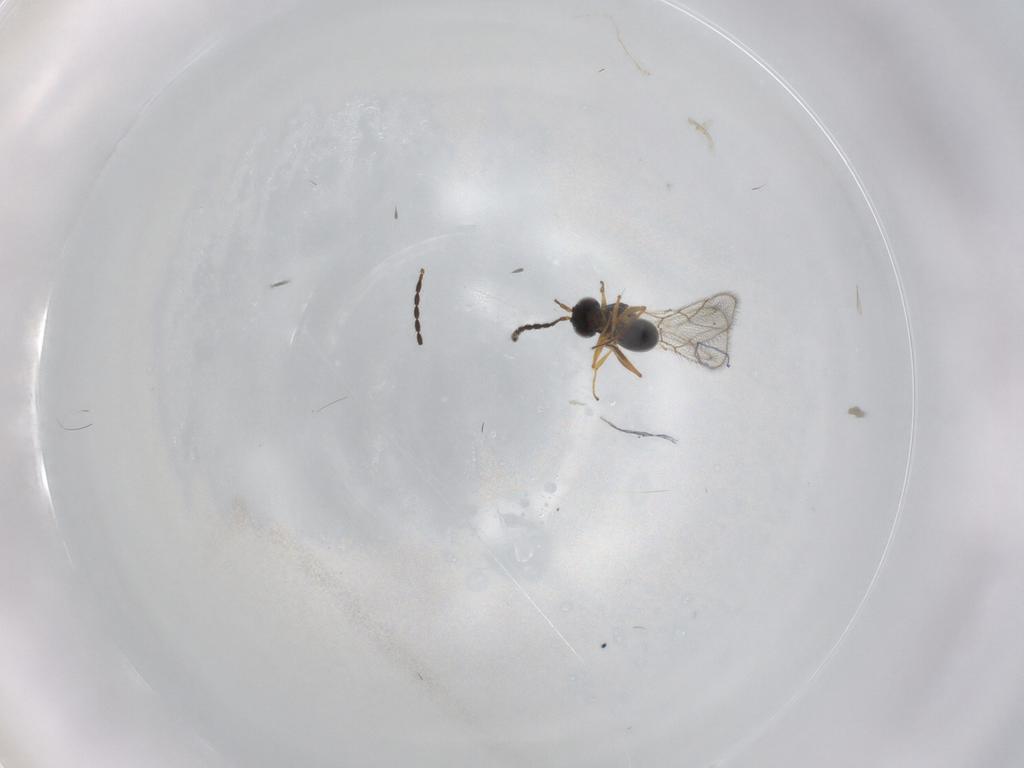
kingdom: Animalia
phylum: Arthropoda
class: Insecta
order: Hymenoptera
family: Figitidae
